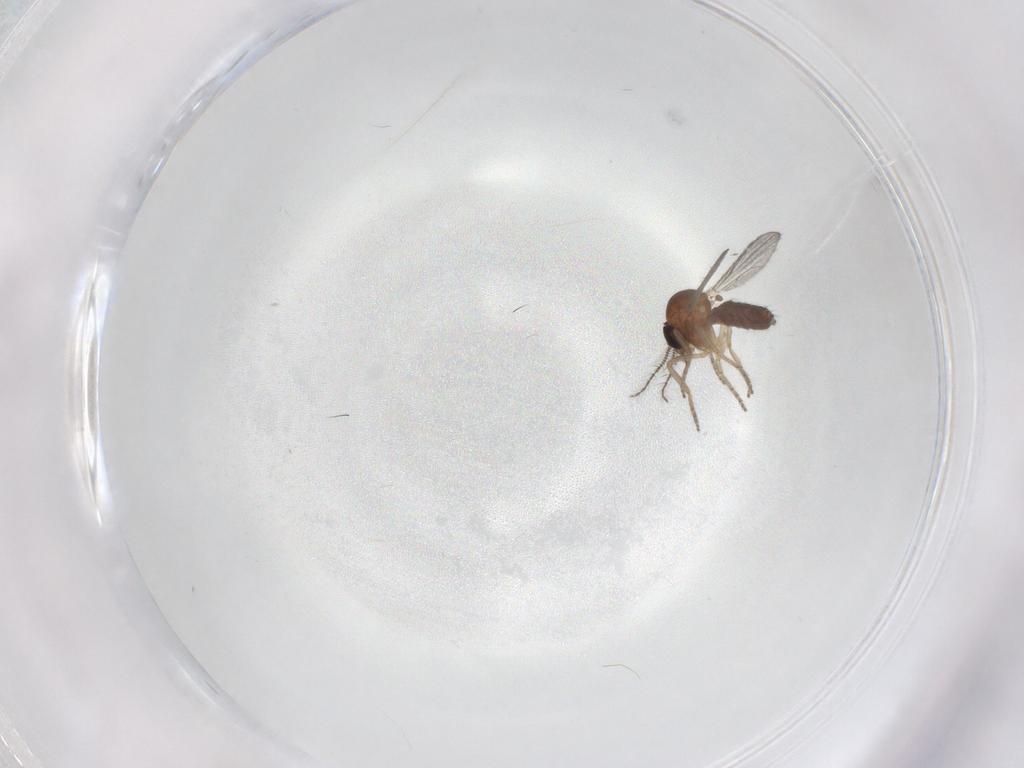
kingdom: Animalia
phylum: Arthropoda
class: Insecta
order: Diptera
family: Ceratopogonidae
